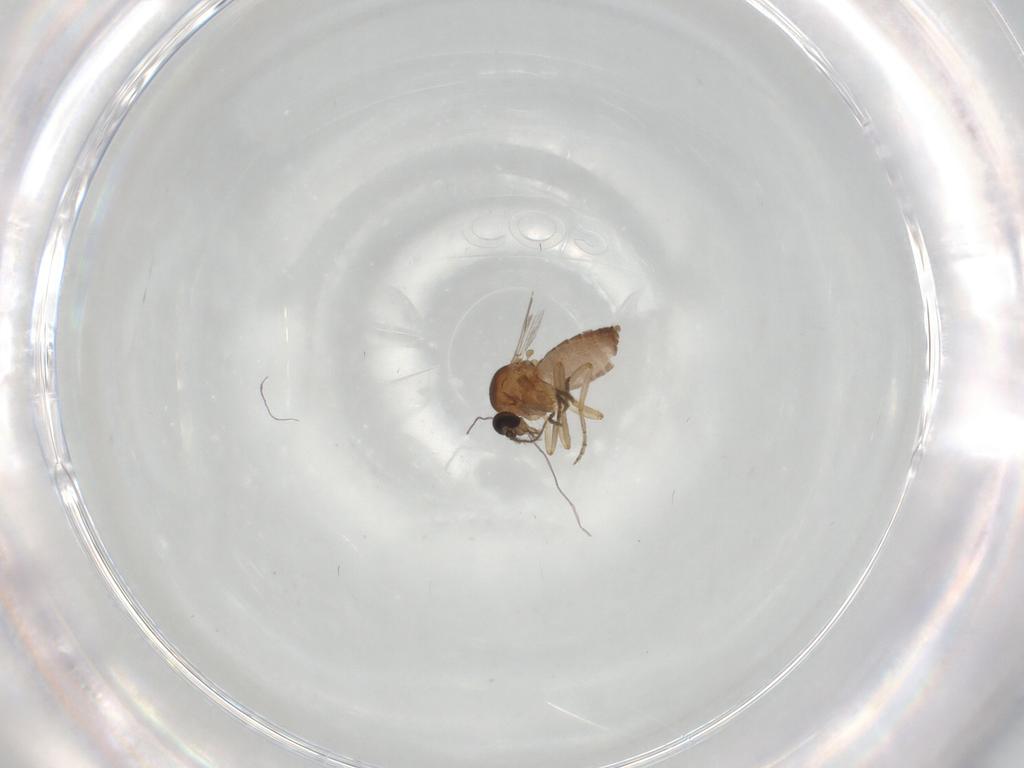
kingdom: Animalia
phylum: Arthropoda
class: Insecta
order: Diptera
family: Ceratopogonidae
